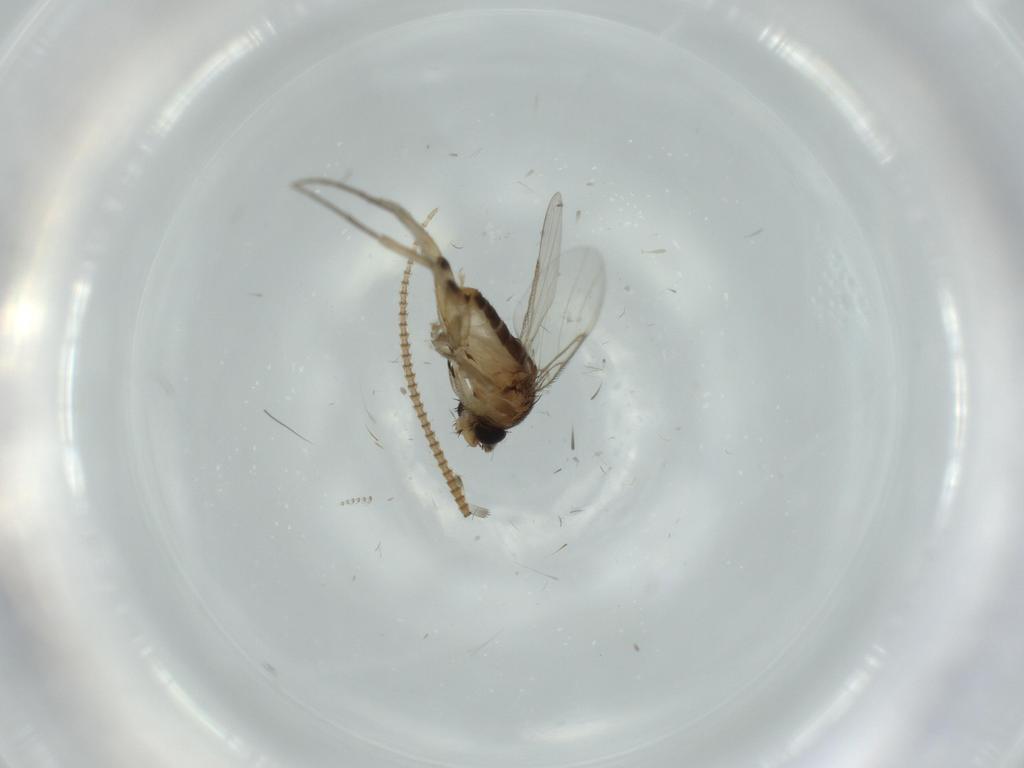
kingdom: Animalia
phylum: Arthropoda
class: Insecta
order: Diptera
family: Phoridae
